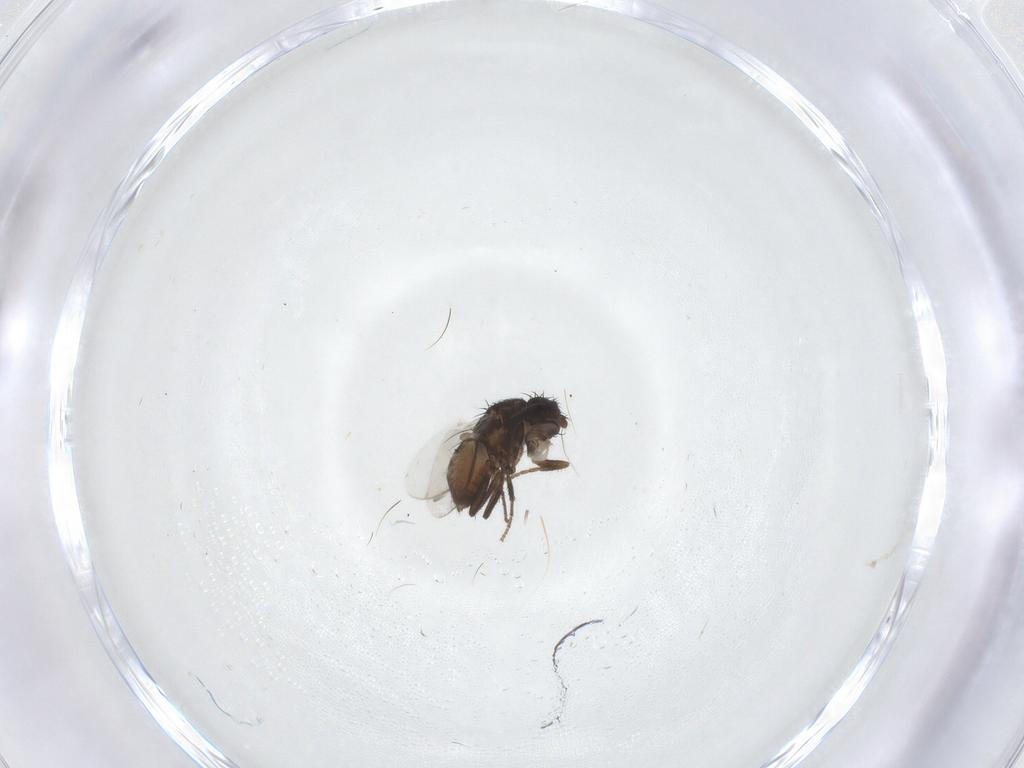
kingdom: Animalia
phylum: Arthropoda
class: Insecta
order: Diptera
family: Sphaeroceridae
